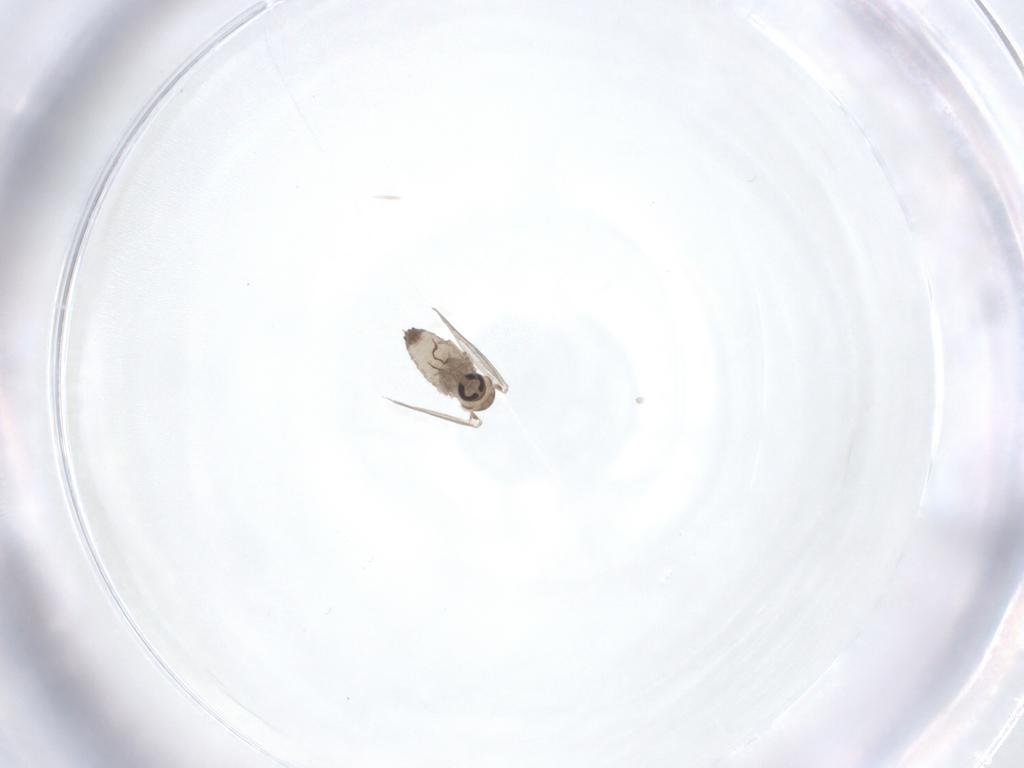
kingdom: Animalia
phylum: Arthropoda
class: Insecta
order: Diptera
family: Psychodidae
